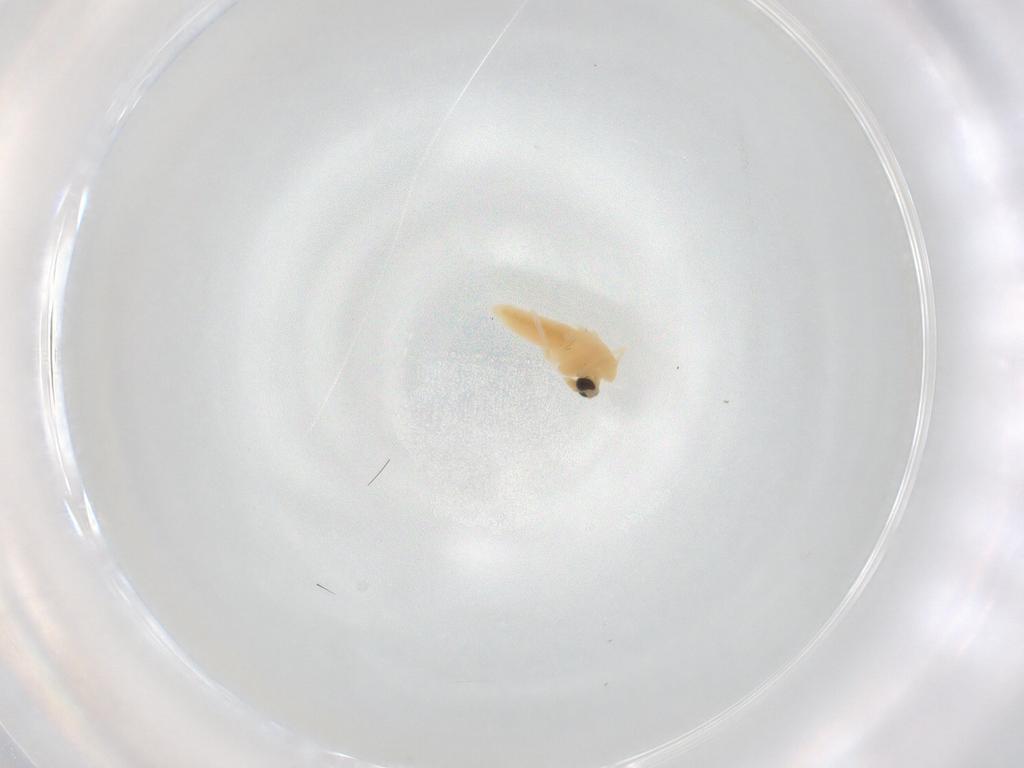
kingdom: Animalia
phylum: Arthropoda
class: Insecta
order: Diptera
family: Chironomidae
